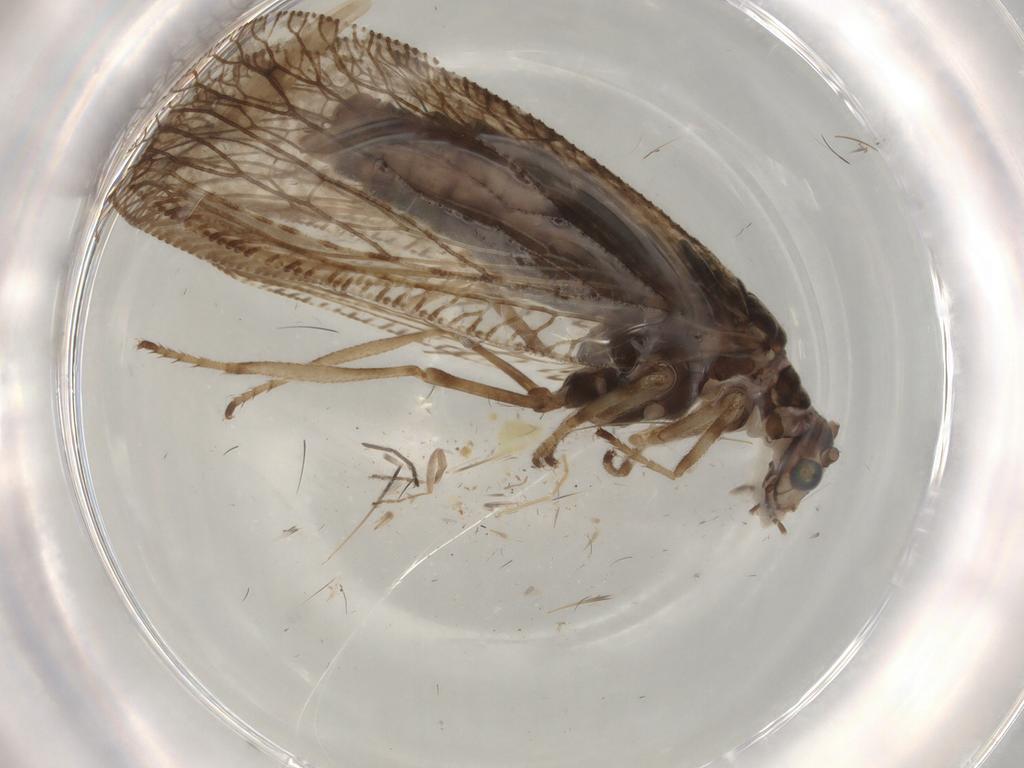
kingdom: Animalia
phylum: Arthropoda
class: Insecta
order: Neuroptera
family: Hemerobiidae
